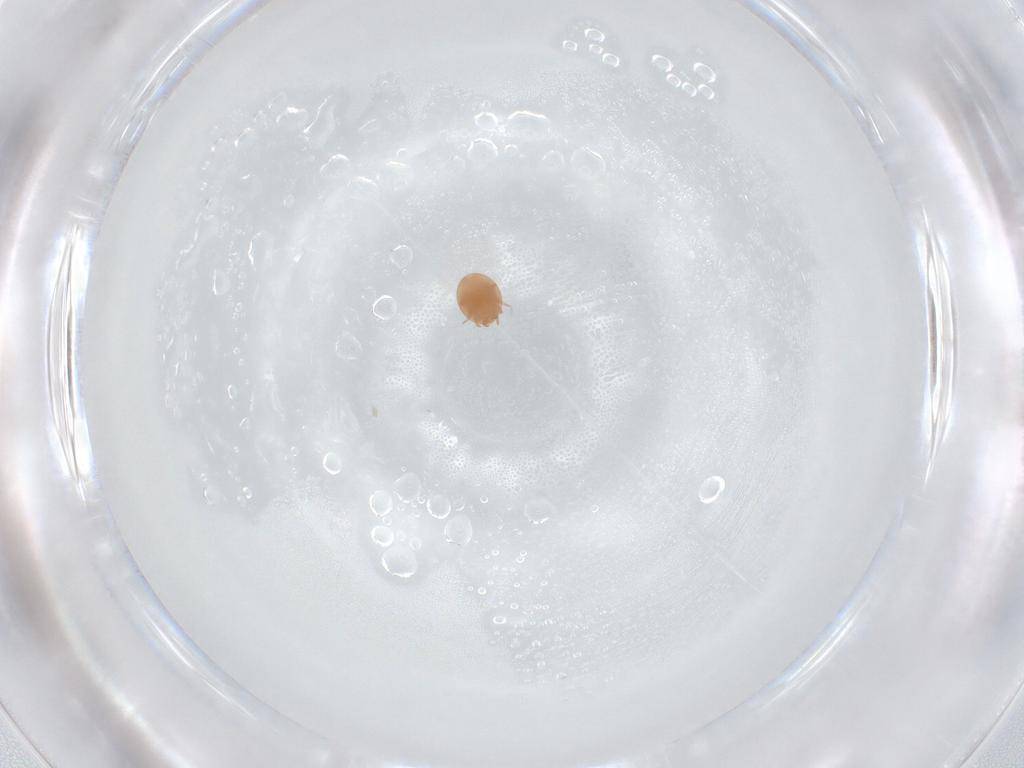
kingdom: Animalia
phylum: Arthropoda
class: Arachnida
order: Mesostigmata
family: Trematuridae
